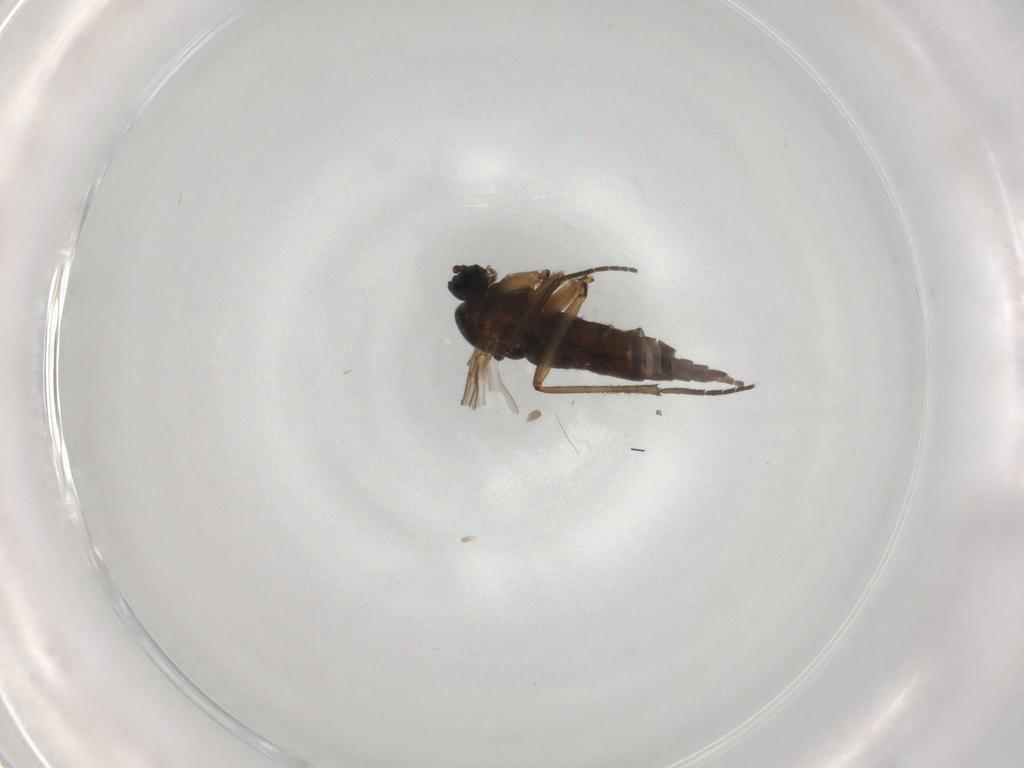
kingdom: Animalia
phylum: Arthropoda
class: Insecta
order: Diptera
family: Sciaridae
